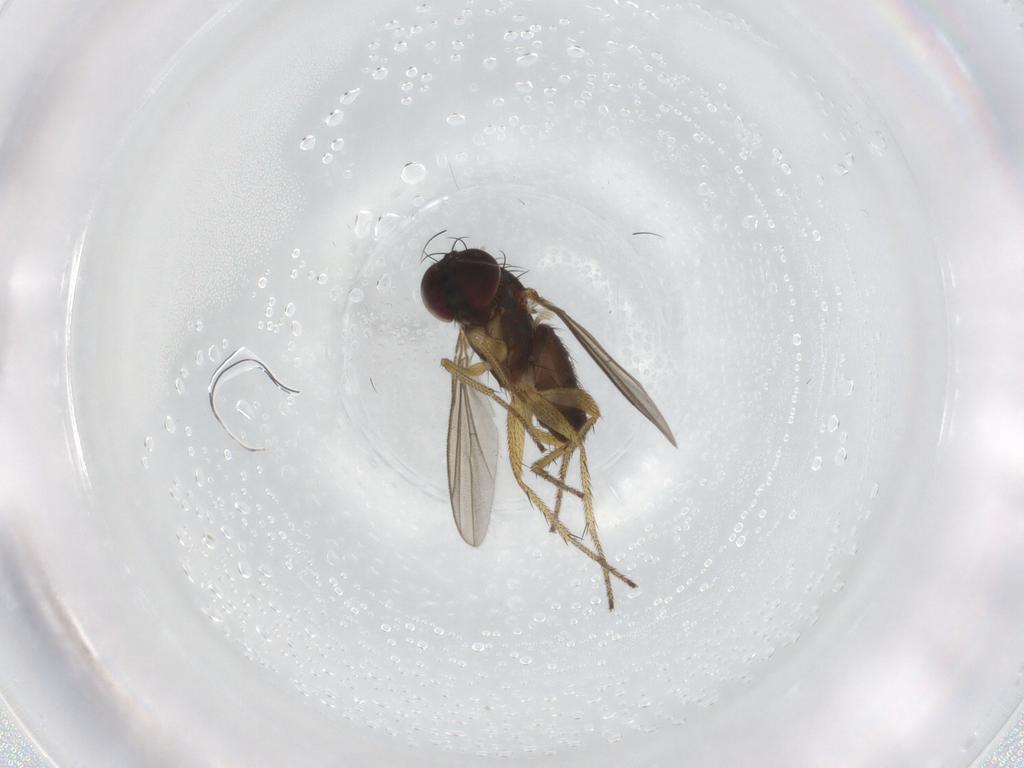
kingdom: Animalia
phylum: Arthropoda
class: Insecta
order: Diptera
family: Dolichopodidae
